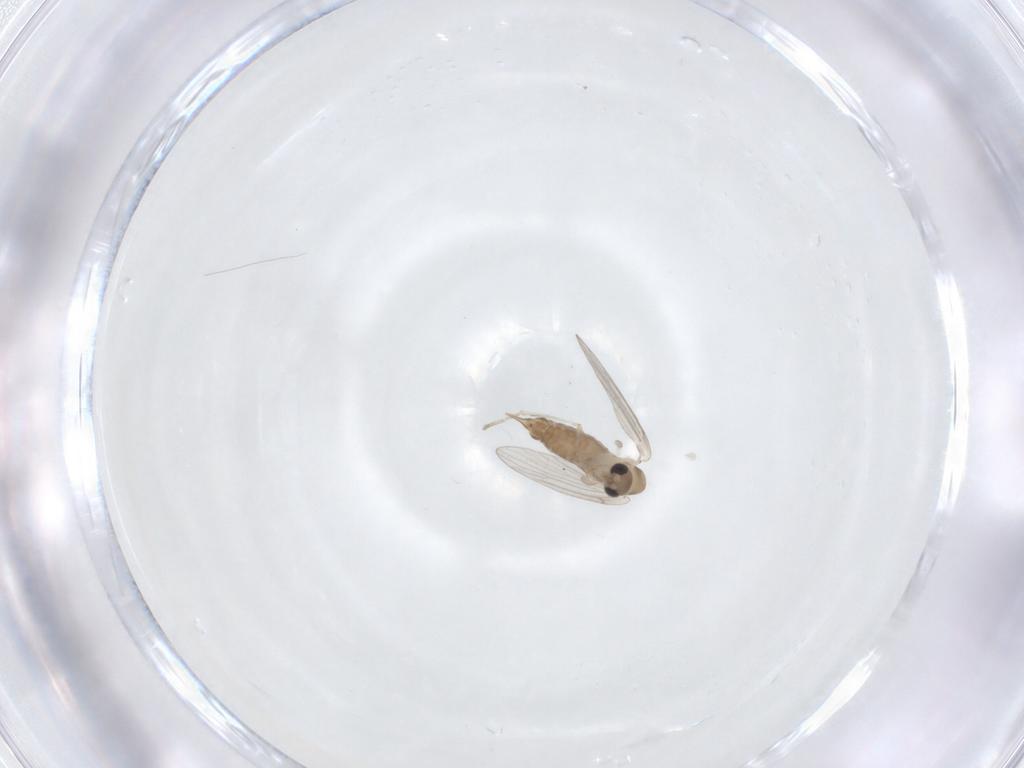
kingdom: Animalia
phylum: Arthropoda
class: Insecta
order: Diptera
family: Psychodidae
